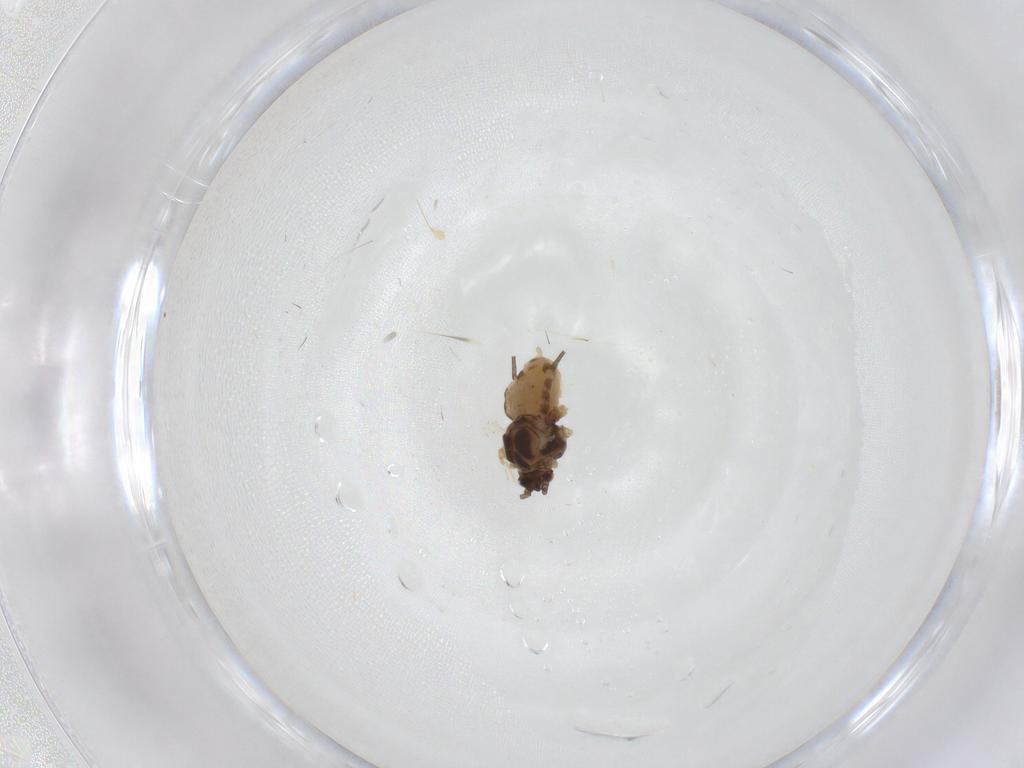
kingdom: Animalia
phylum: Arthropoda
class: Insecta
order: Hemiptera
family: Aphididae
